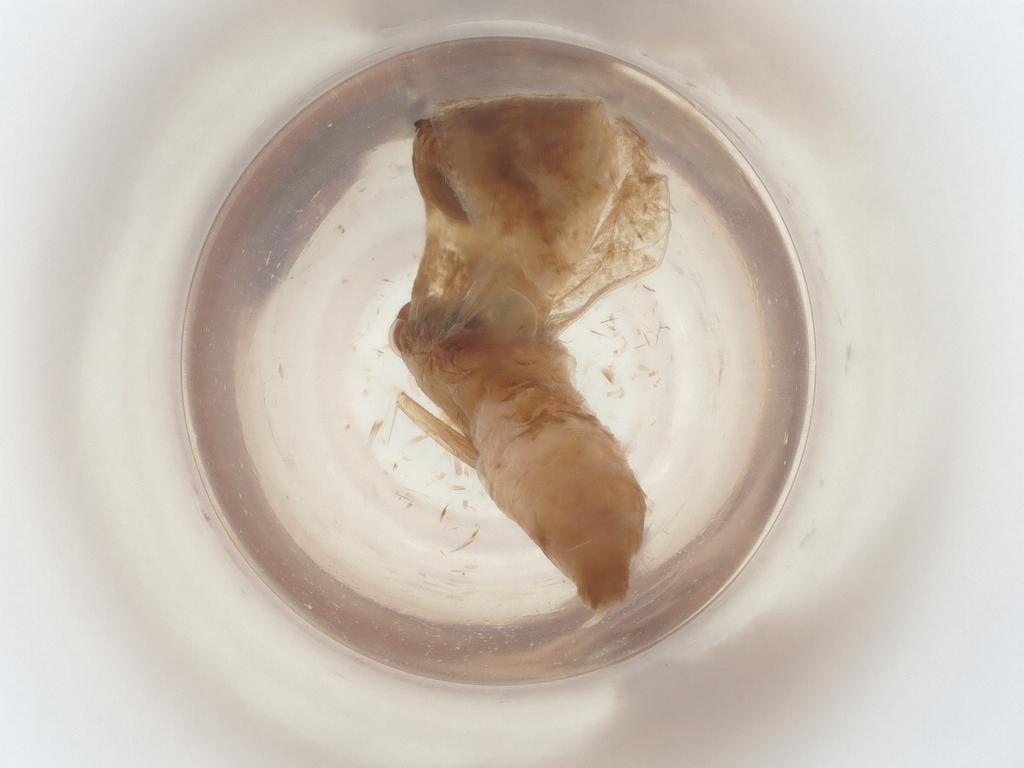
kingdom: Animalia
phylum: Arthropoda
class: Insecta
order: Lepidoptera
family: Gelechiidae
